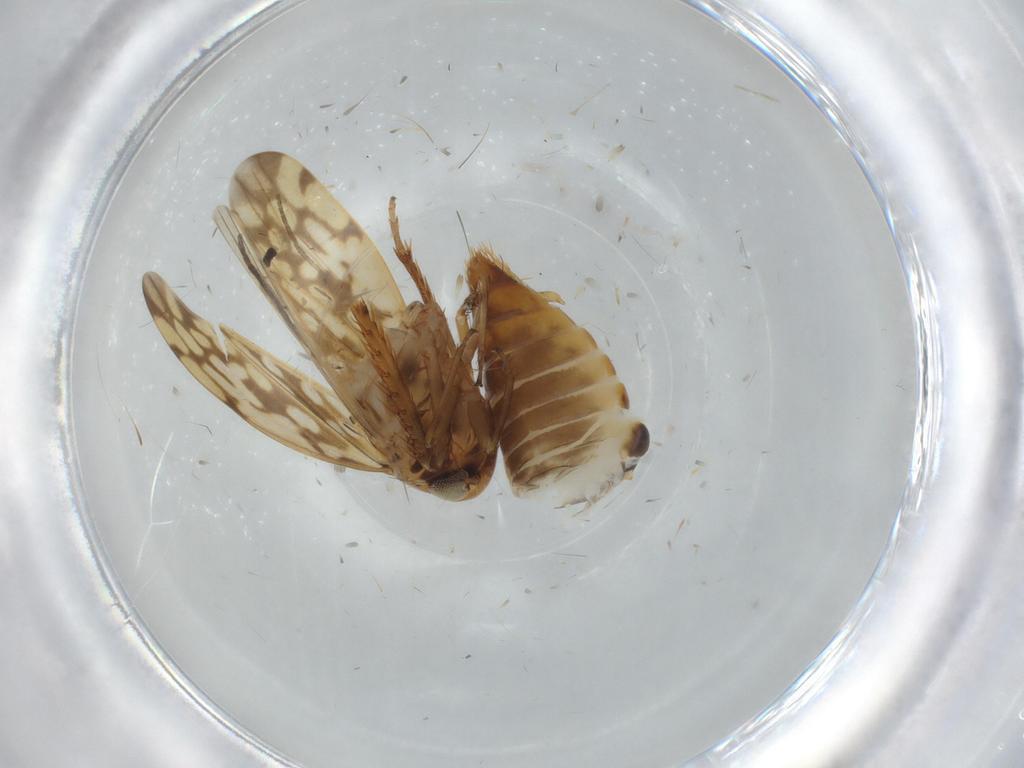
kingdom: Animalia
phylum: Arthropoda
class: Insecta
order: Hemiptera
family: Cicadellidae
